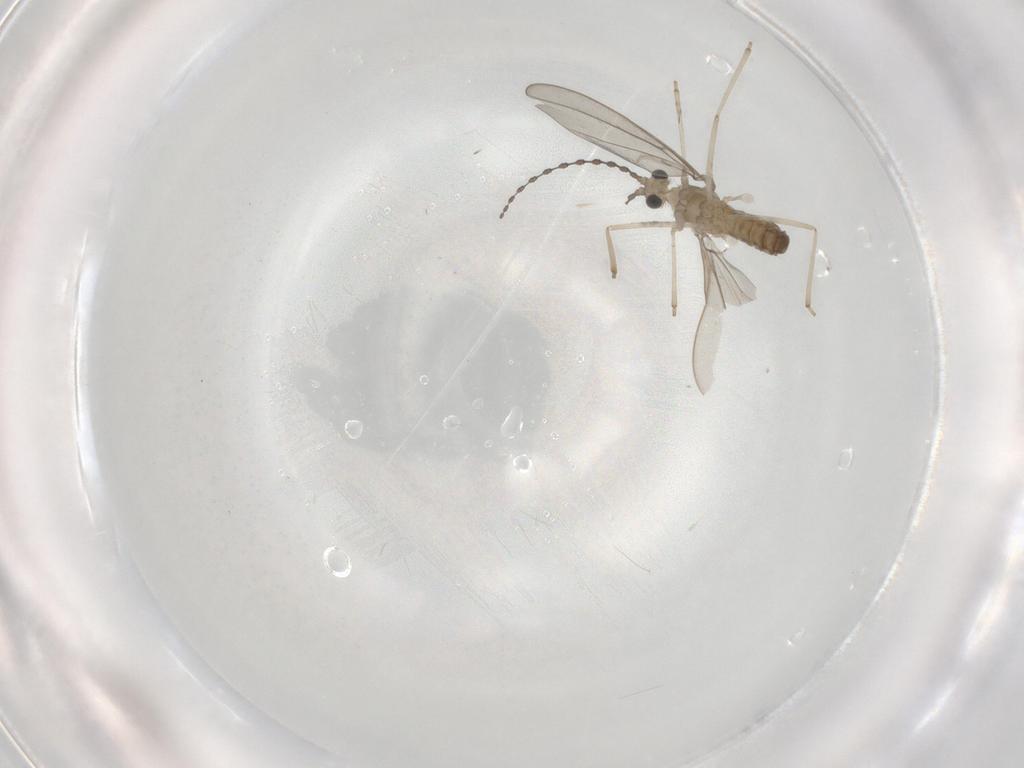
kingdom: Animalia
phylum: Arthropoda
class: Insecta
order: Diptera
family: Cecidomyiidae
